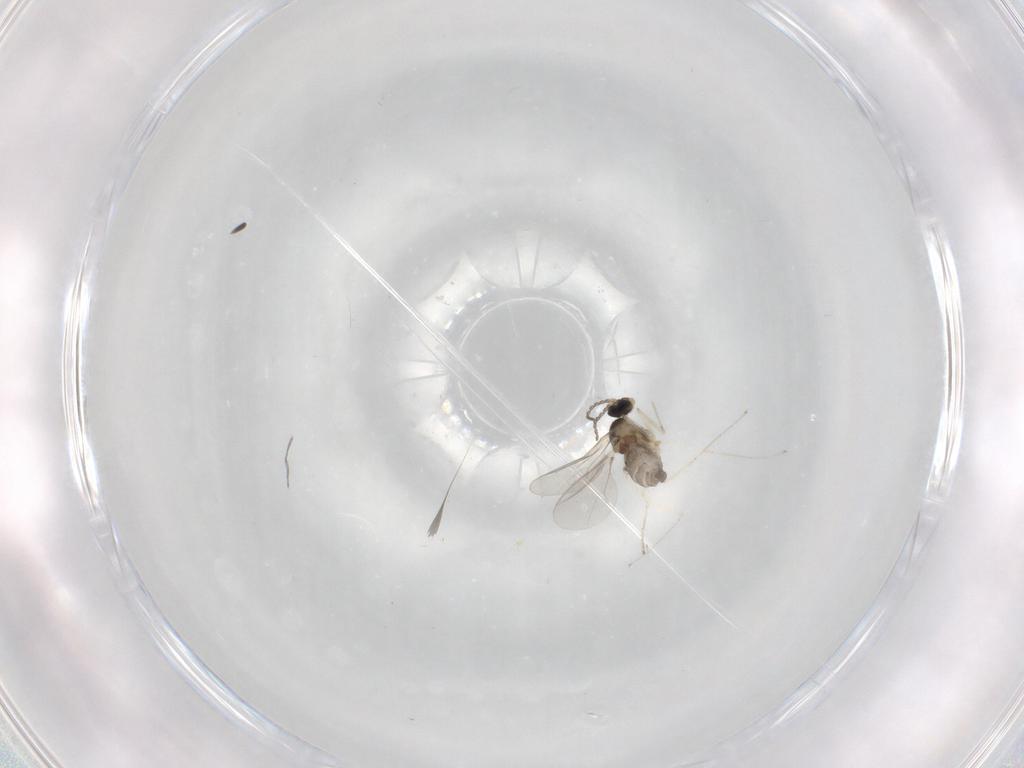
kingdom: Animalia
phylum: Arthropoda
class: Insecta
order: Diptera
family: Cecidomyiidae
